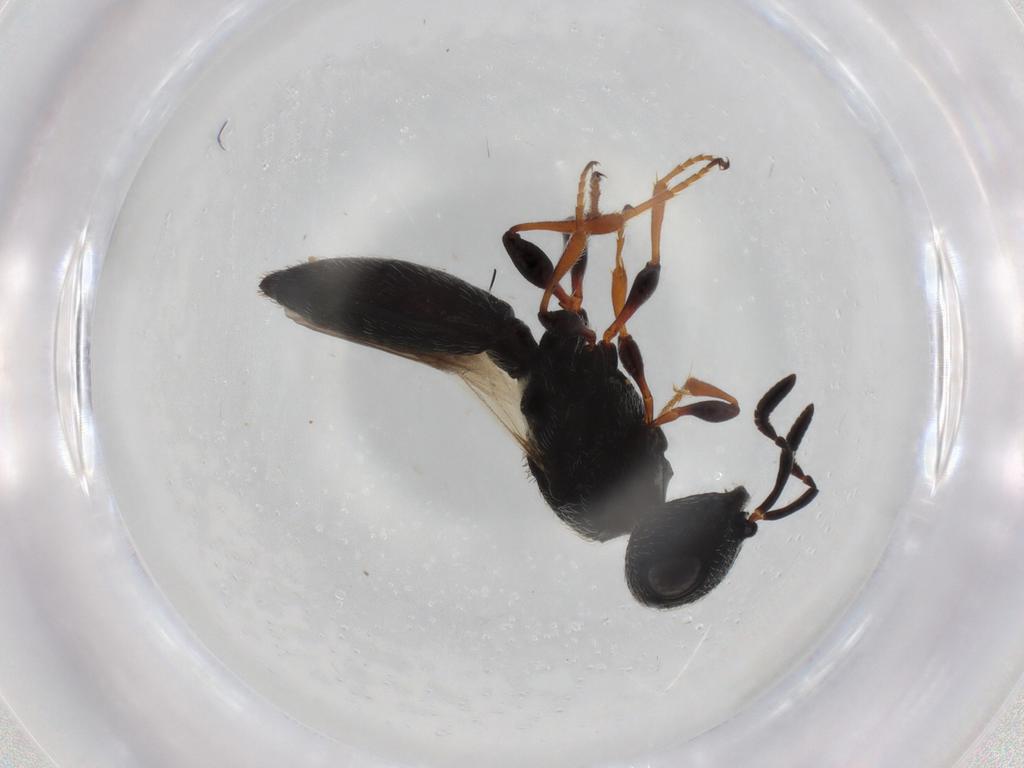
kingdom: Animalia
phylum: Arthropoda
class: Insecta
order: Hymenoptera
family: Scelionidae
